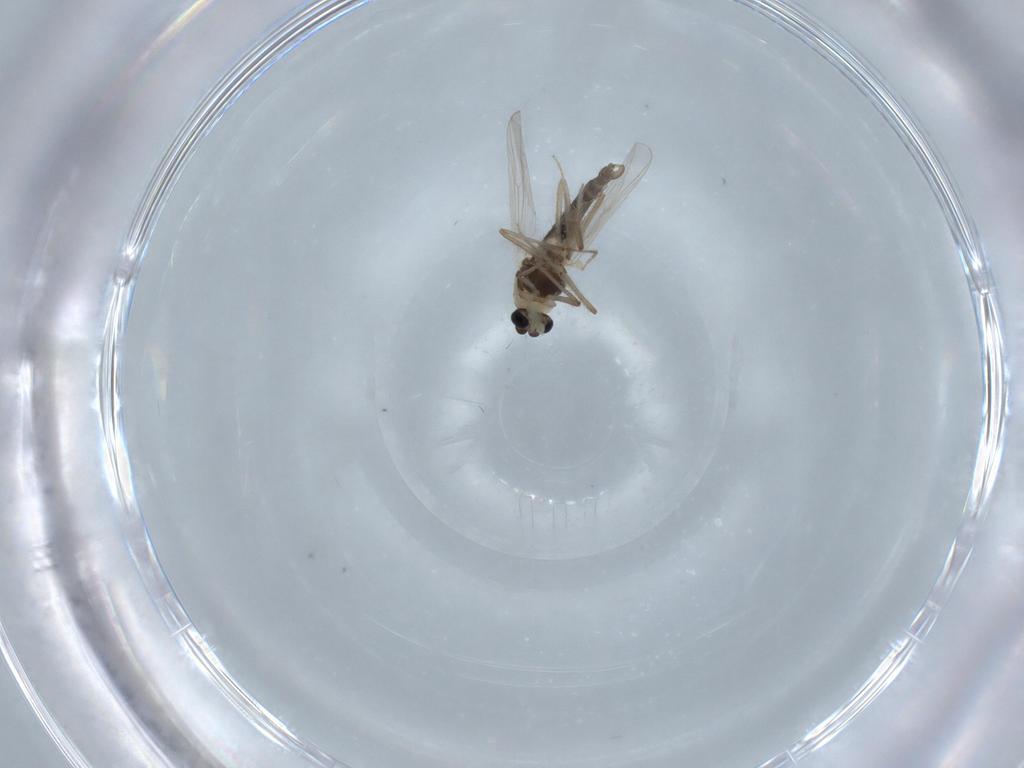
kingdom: Animalia
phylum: Arthropoda
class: Insecta
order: Diptera
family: Chironomidae
